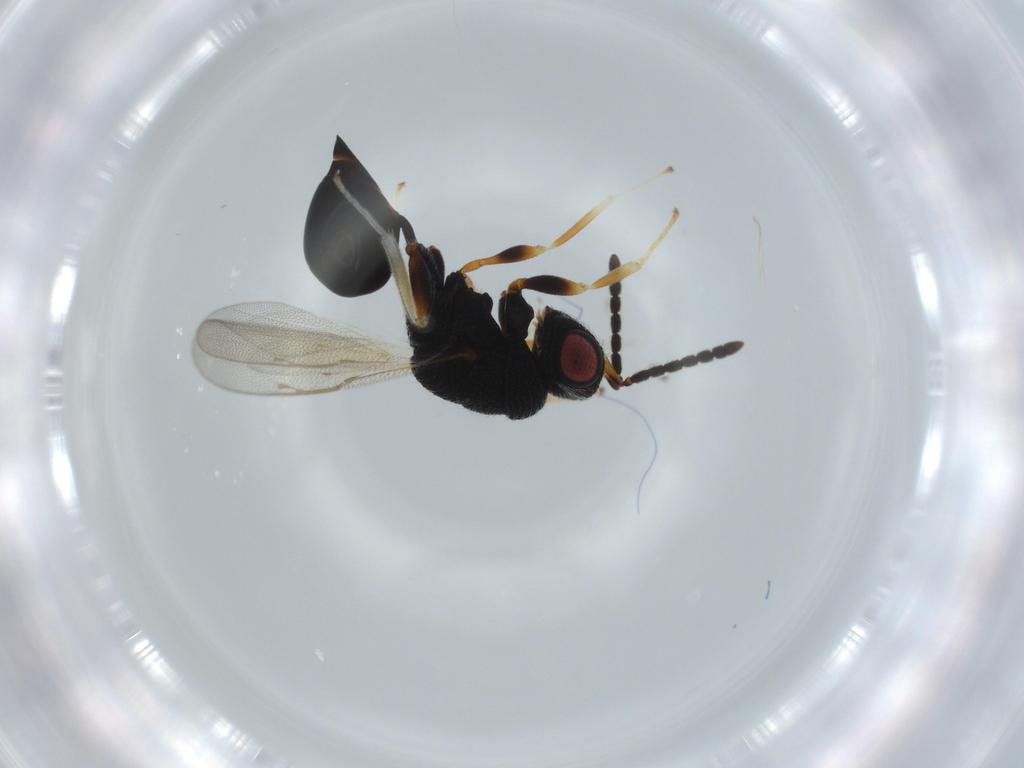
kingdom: Animalia
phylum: Arthropoda
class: Insecta
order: Hymenoptera
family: Eurytomidae
